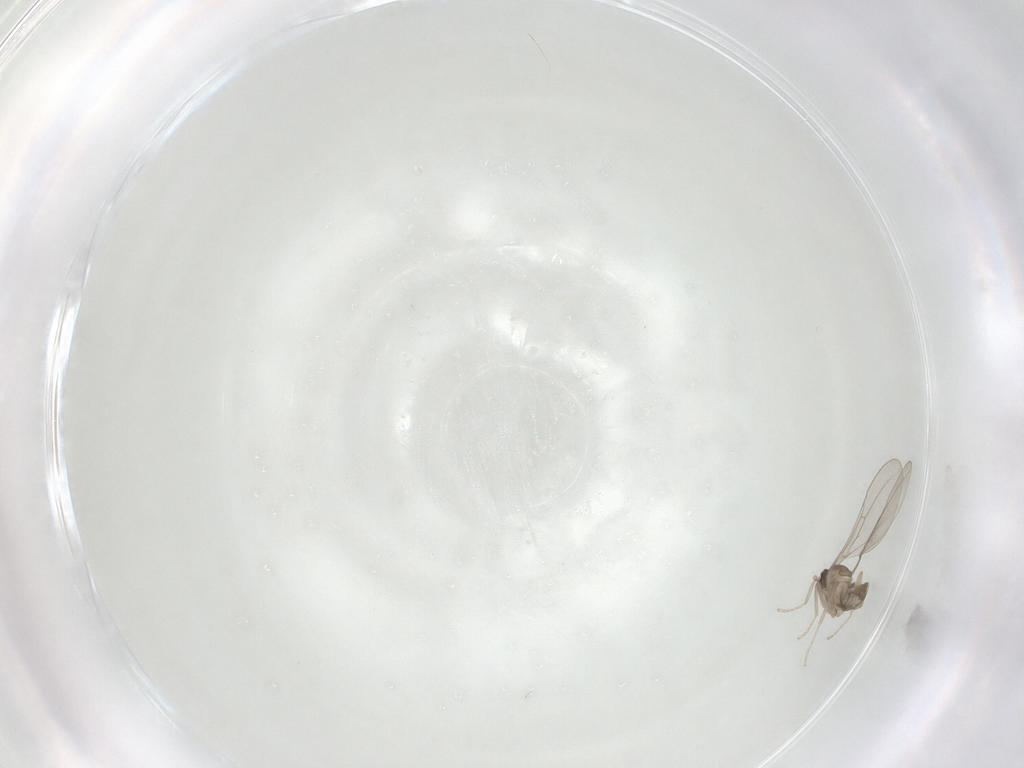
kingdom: Animalia
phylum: Arthropoda
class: Insecta
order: Diptera
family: Cecidomyiidae
